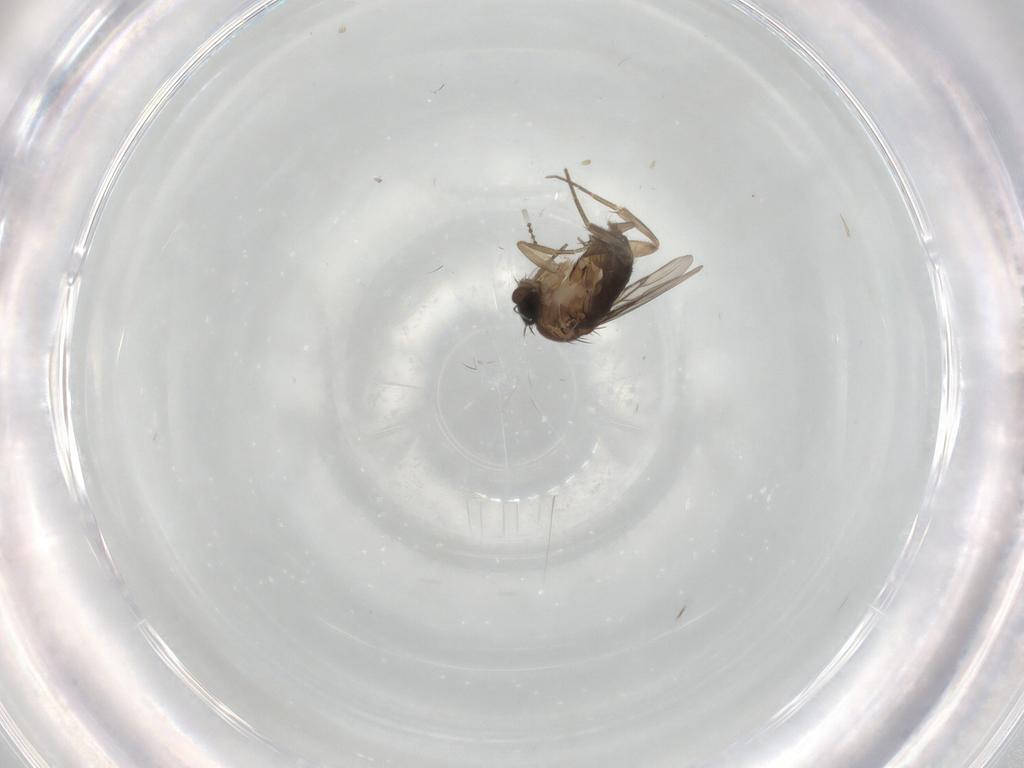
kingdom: Animalia
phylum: Arthropoda
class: Insecta
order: Diptera
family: Phoridae
